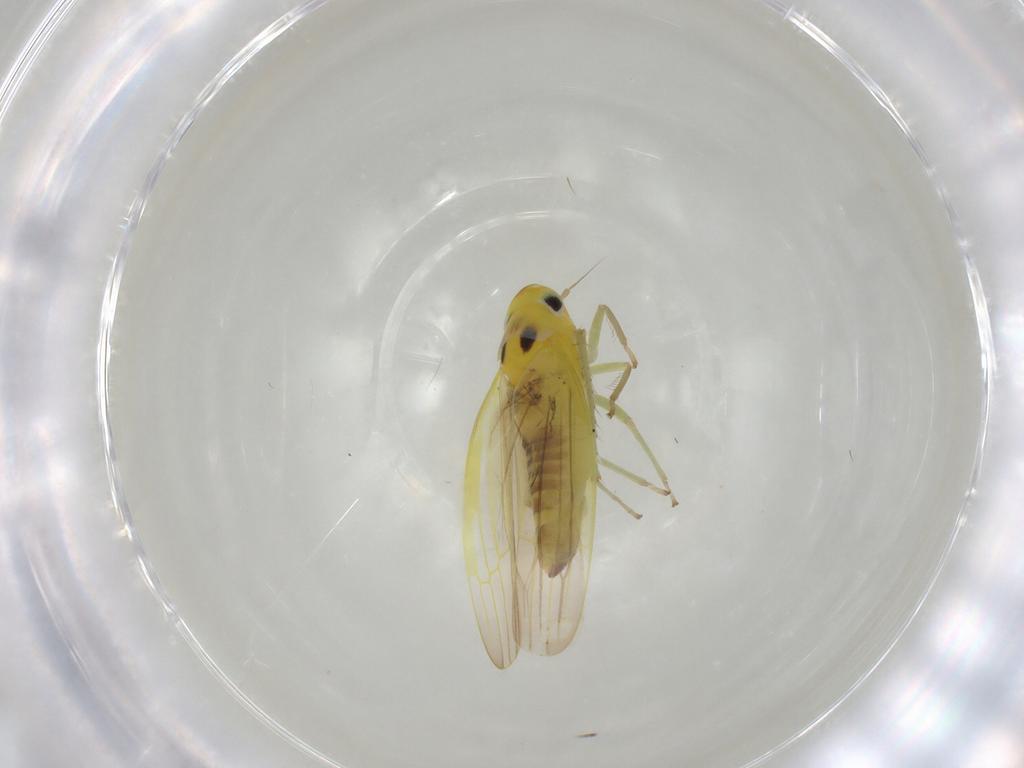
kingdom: Animalia
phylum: Arthropoda
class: Insecta
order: Hemiptera
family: Cicadellidae
